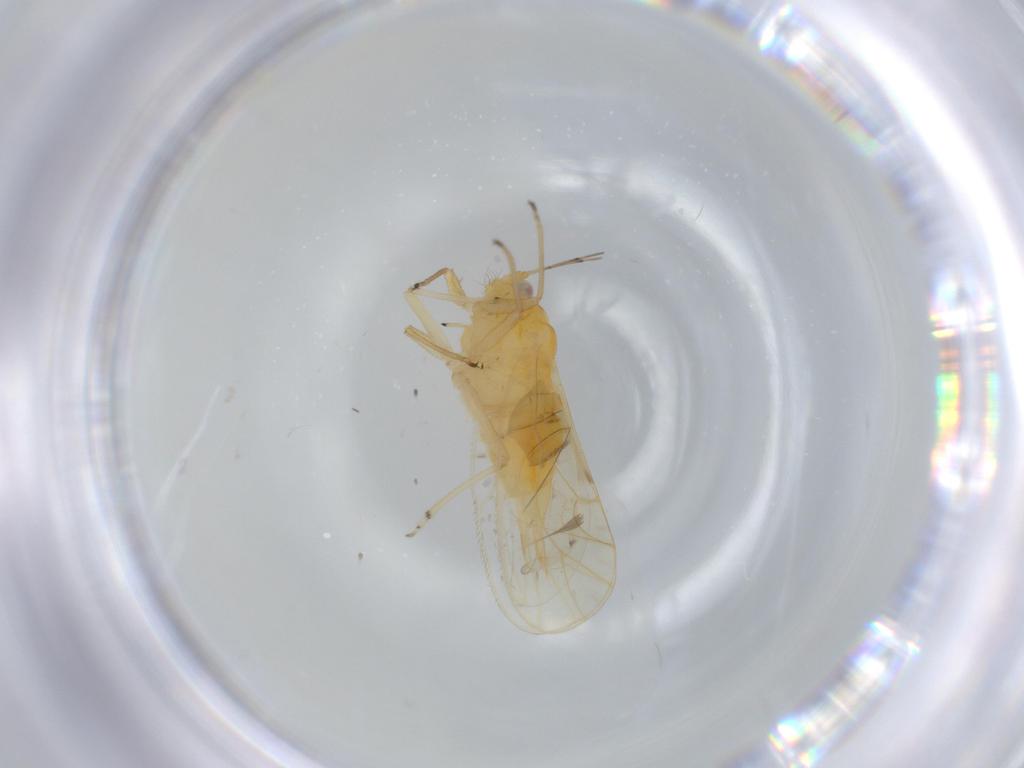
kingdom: Animalia
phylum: Arthropoda
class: Insecta
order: Hemiptera
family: Psyllidae
